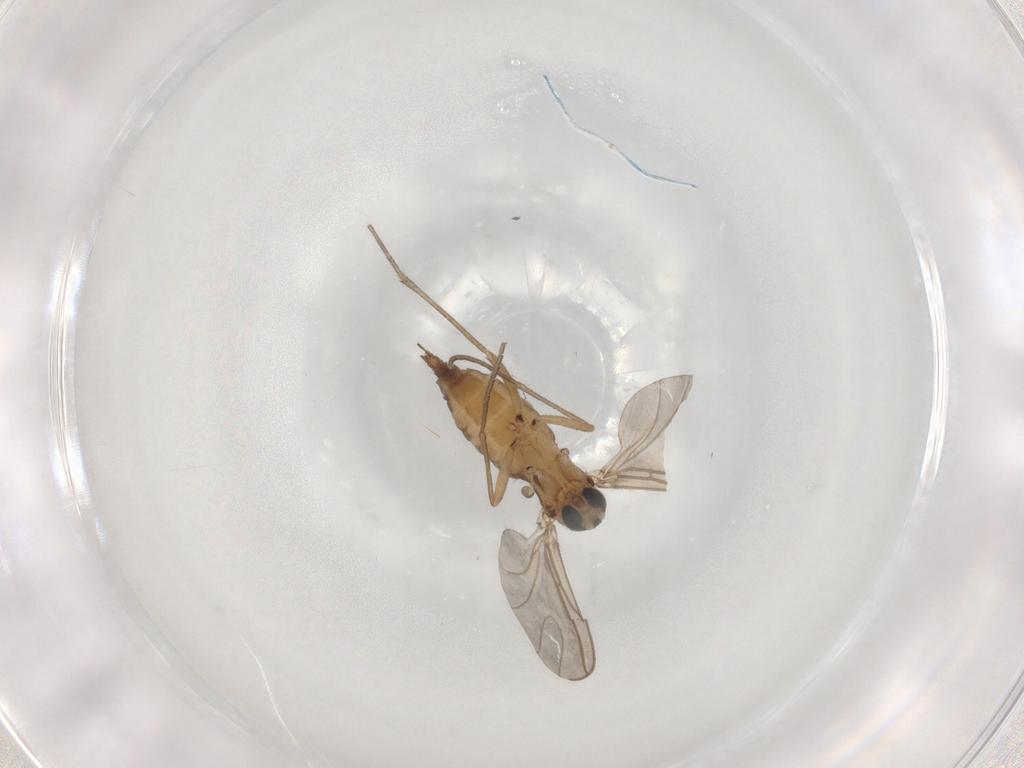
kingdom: Animalia
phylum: Arthropoda
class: Insecta
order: Diptera
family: Sciaridae
